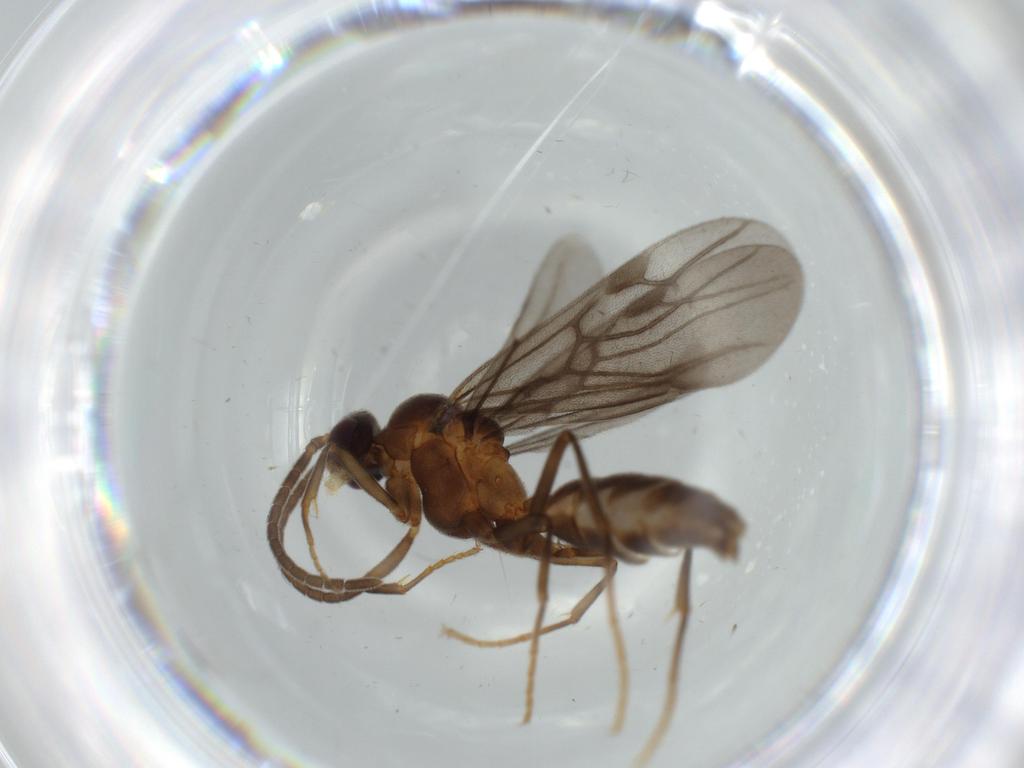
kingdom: Animalia
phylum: Arthropoda
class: Insecta
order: Hymenoptera
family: Formicidae
